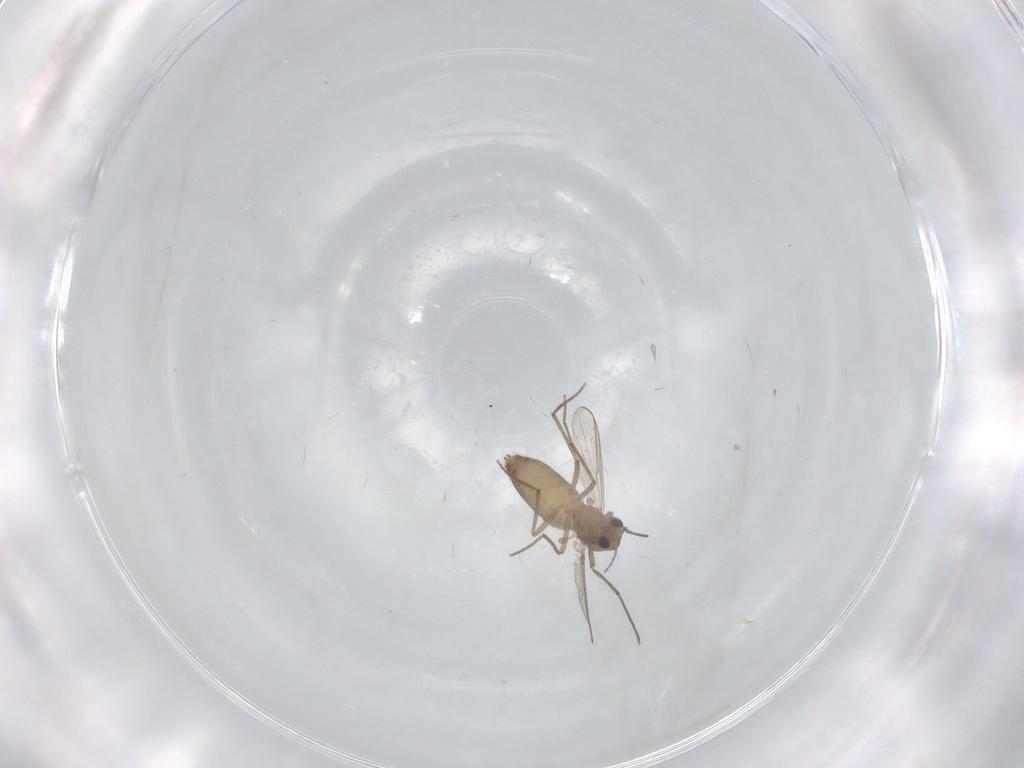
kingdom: Animalia
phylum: Arthropoda
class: Insecta
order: Diptera
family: Chironomidae
